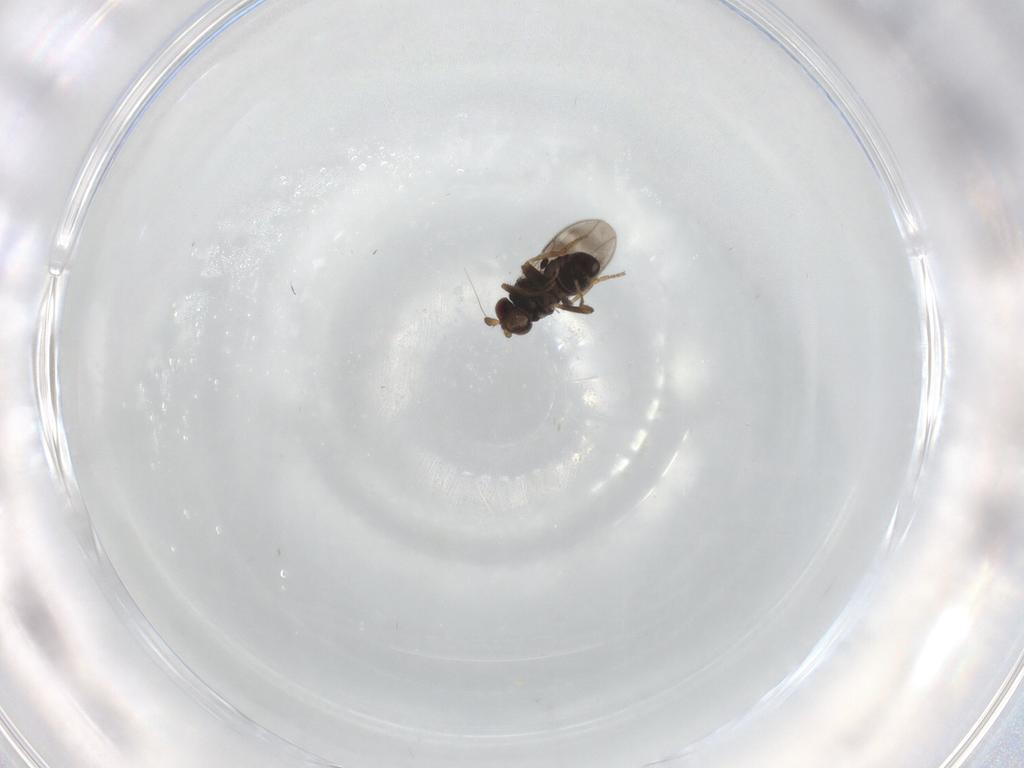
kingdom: Animalia
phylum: Arthropoda
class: Insecta
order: Diptera
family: Sphaeroceridae
